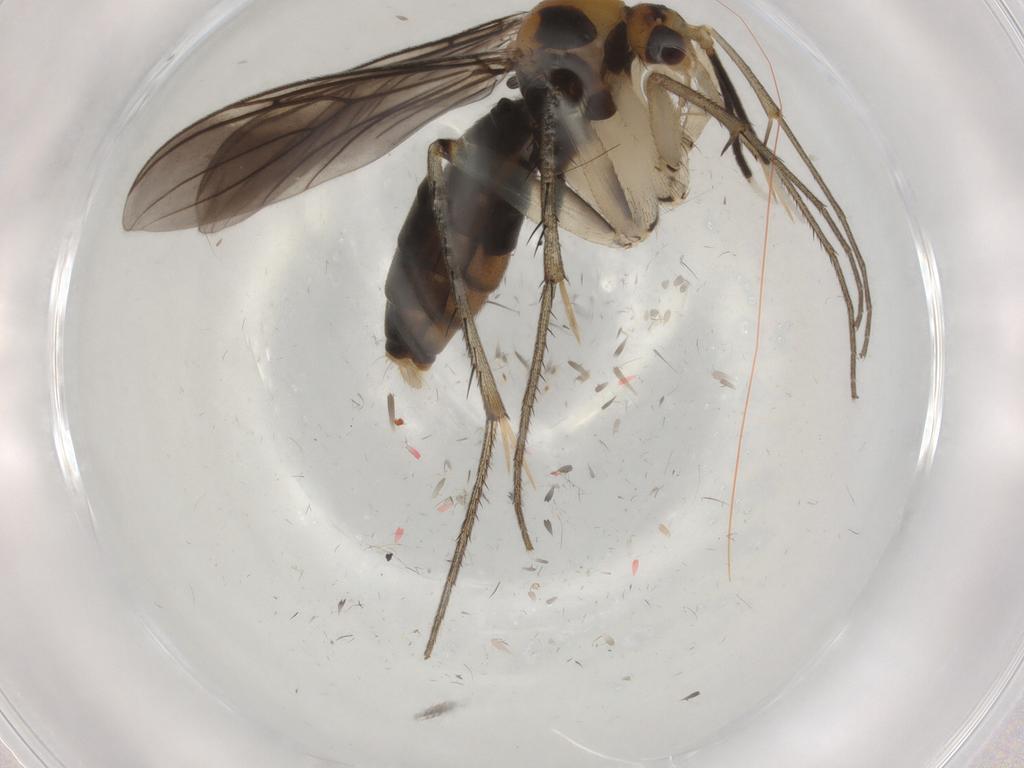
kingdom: Animalia
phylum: Arthropoda
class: Insecta
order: Diptera
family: Mycetophilidae
